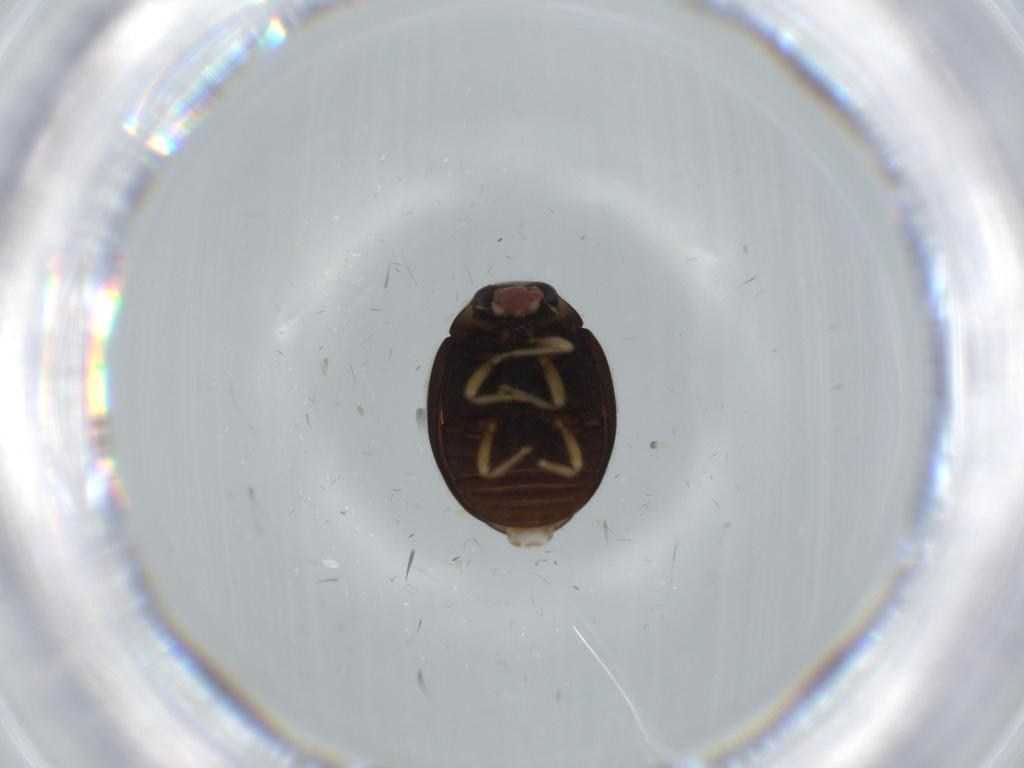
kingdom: Animalia
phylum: Arthropoda
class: Insecta
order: Coleoptera
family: Coccinellidae
